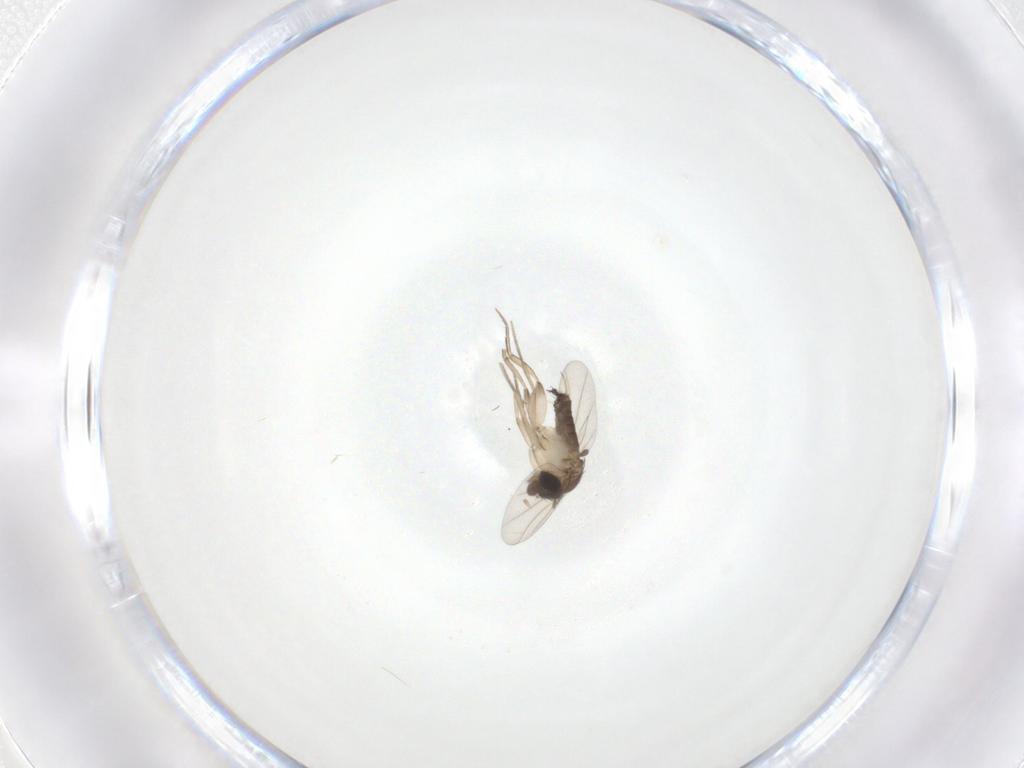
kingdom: Animalia
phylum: Arthropoda
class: Insecta
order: Diptera
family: Phoridae
